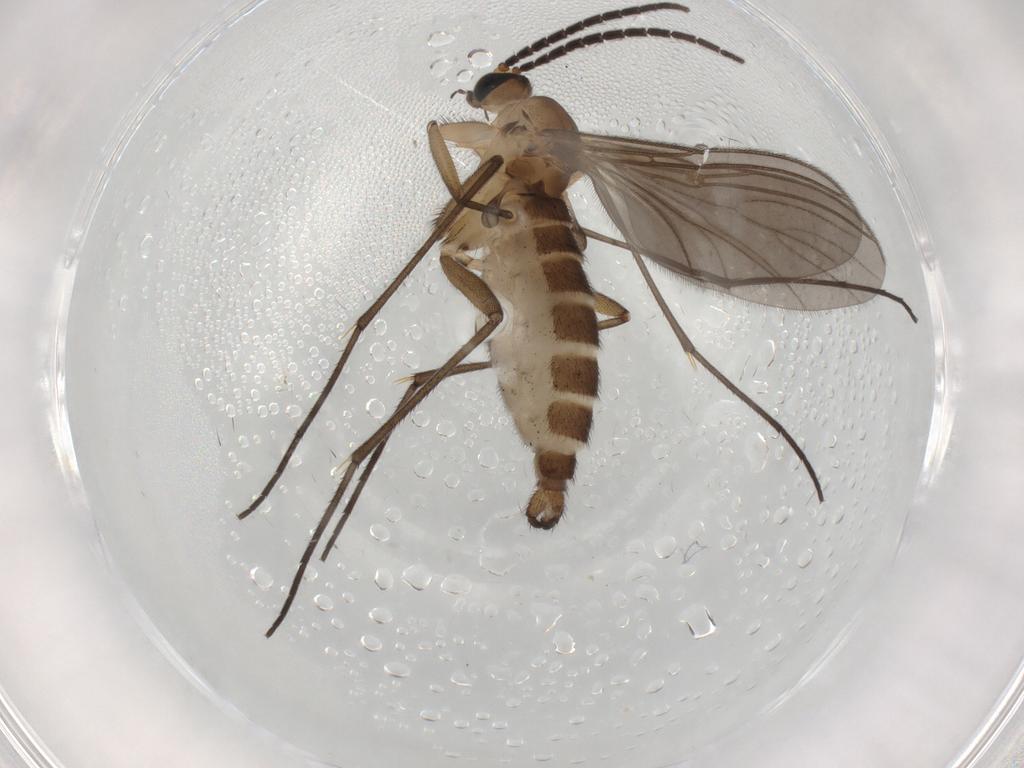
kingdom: Animalia
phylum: Arthropoda
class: Insecta
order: Diptera
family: Sciaridae
